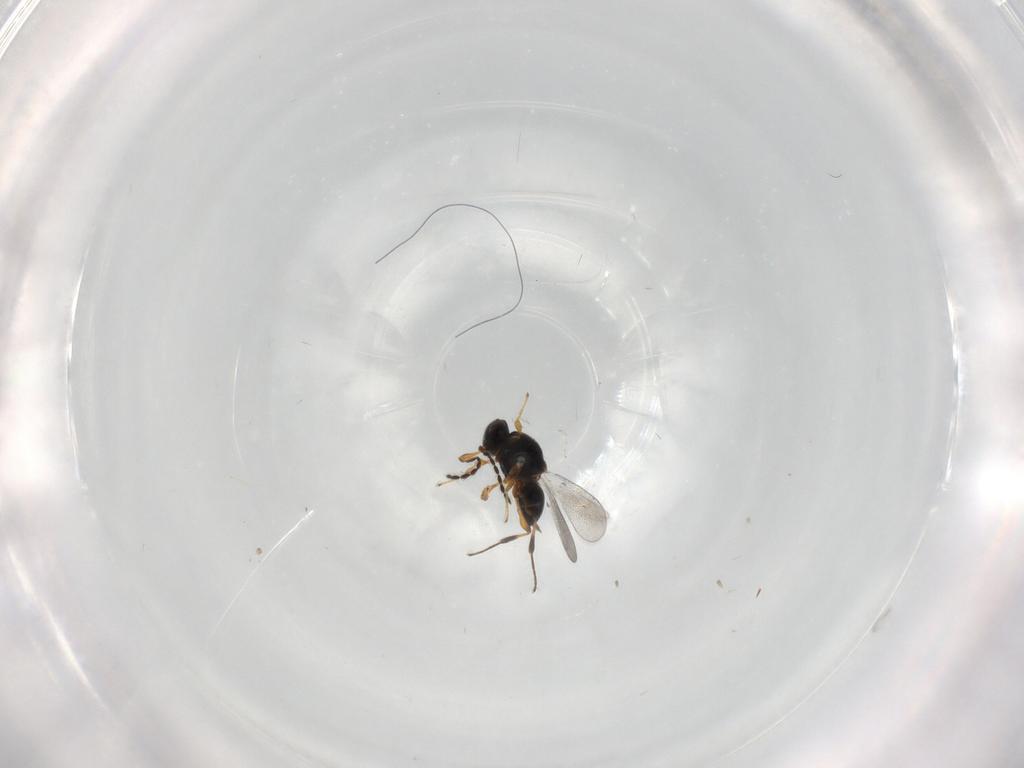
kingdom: Animalia
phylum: Arthropoda
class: Insecta
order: Hymenoptera
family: Platygastridae
